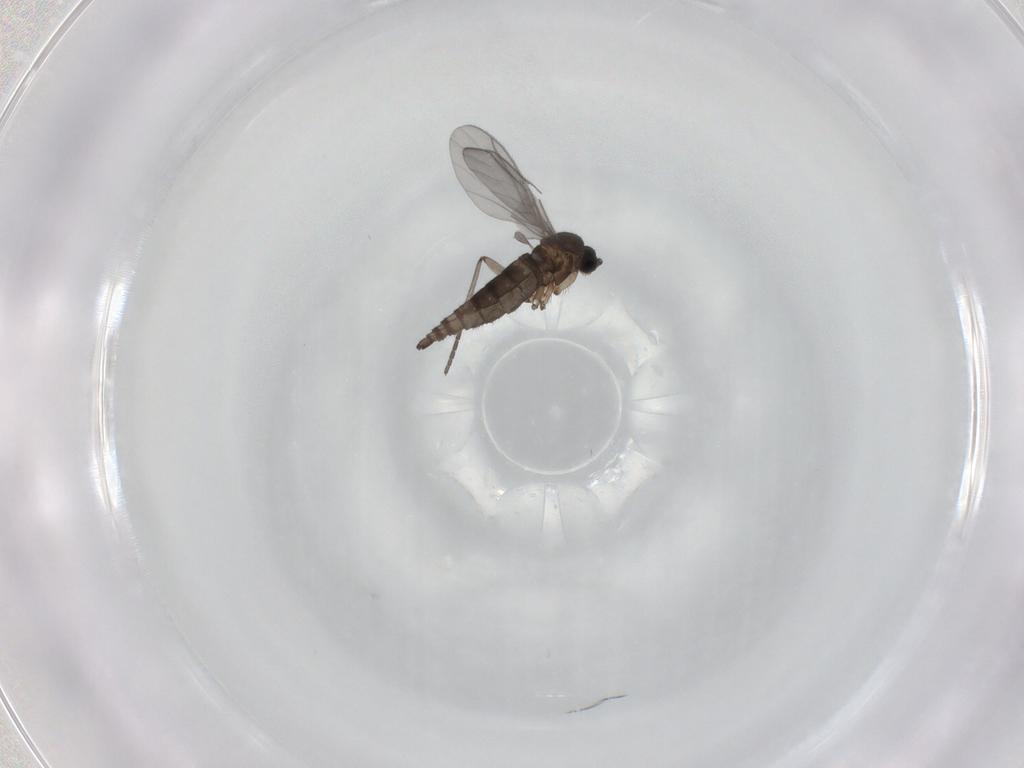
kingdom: Animalia
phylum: Arthropoda
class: Insecta
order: Diptera
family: Sciaridae
